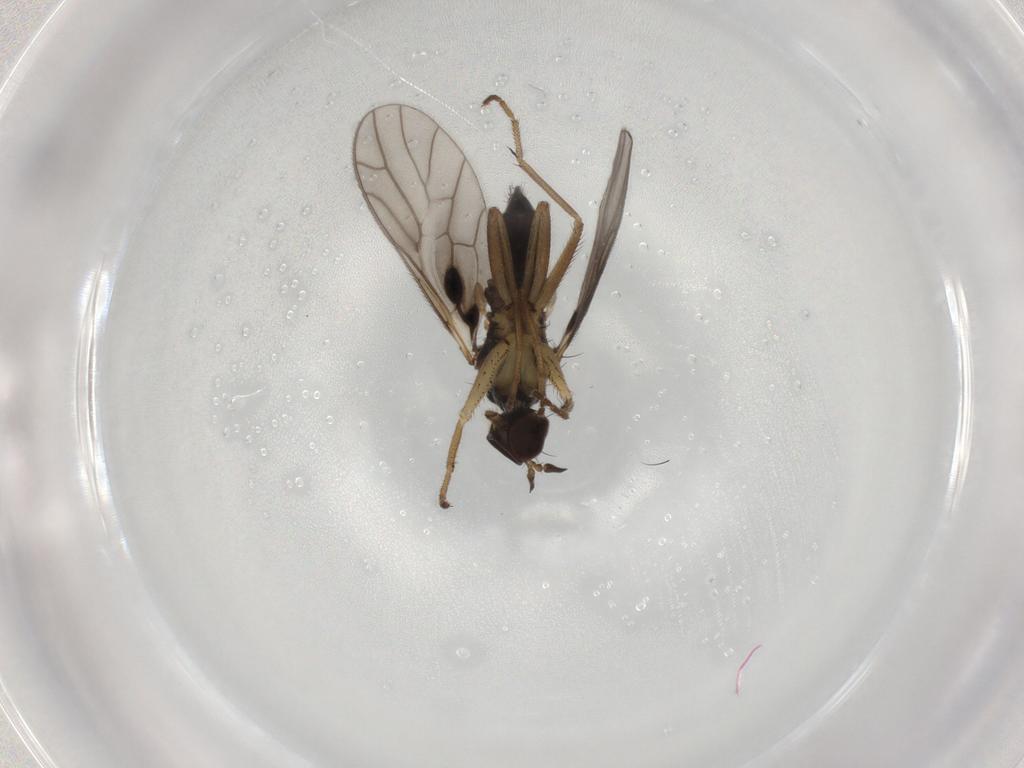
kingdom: Animalia
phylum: Arthropoda
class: Insecta
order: Diptera
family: Empididae
